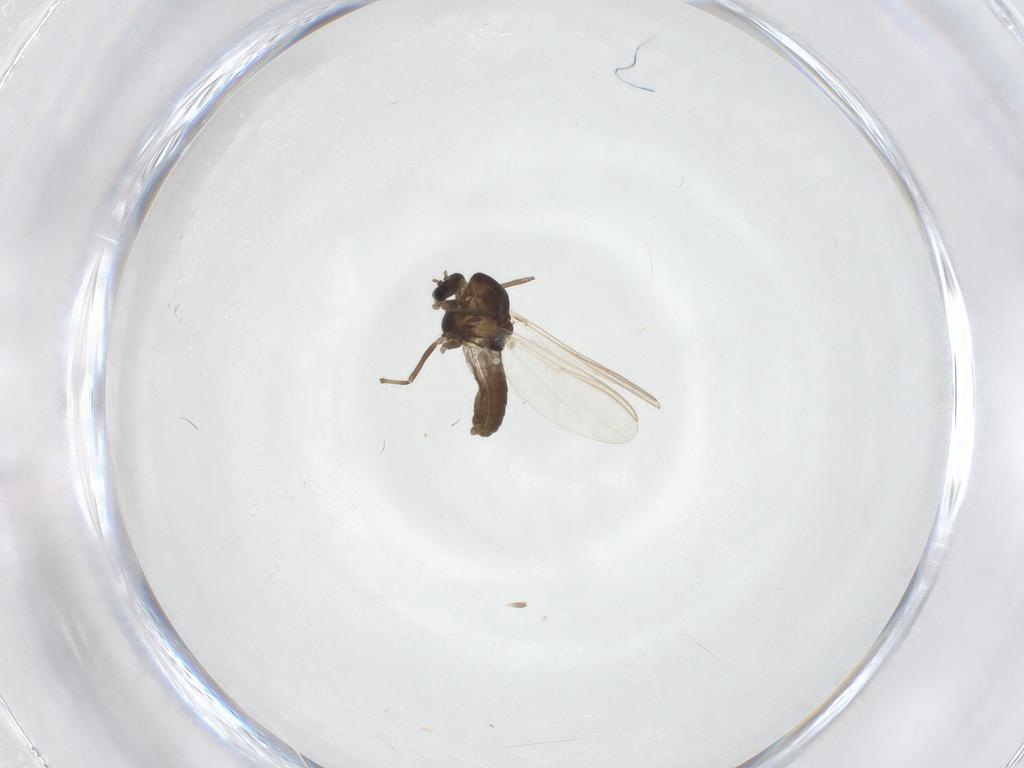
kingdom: Animalia
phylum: Arthropoda
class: Insecta
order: Diptera
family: Chironomidae
